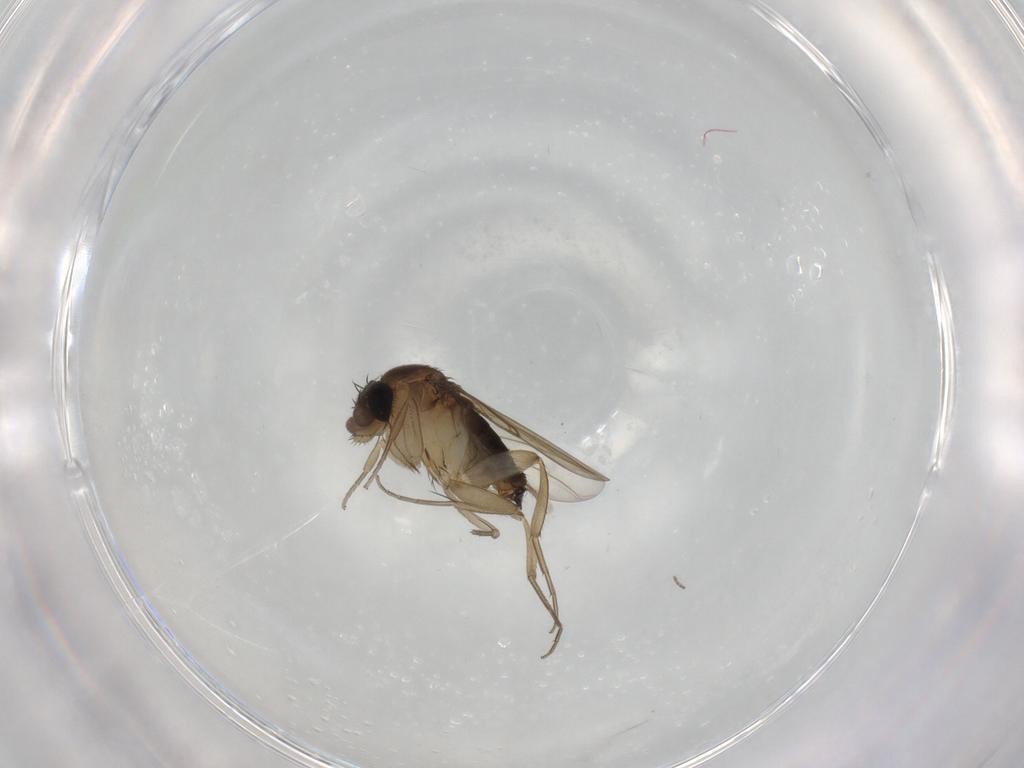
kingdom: Animalia
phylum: Arthropoda
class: Insecta
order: Diptera
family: Ceratopogonidae
